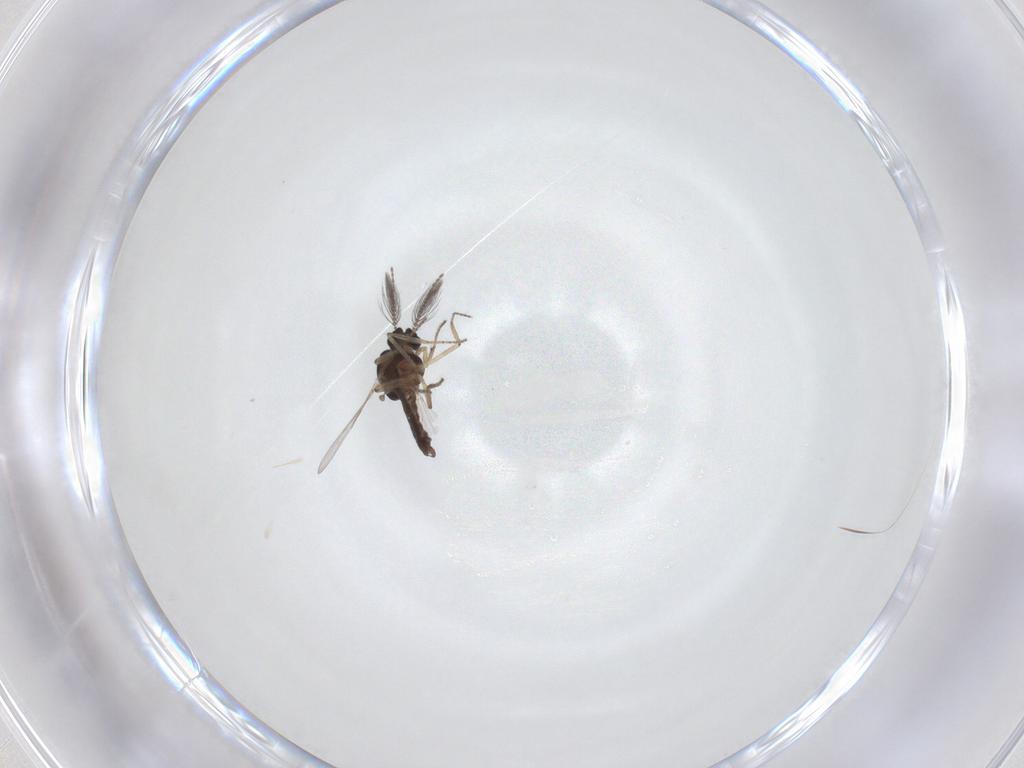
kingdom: Animalia
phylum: Arthropoda
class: Insecta
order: Diptera
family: Ceratopogonidae
